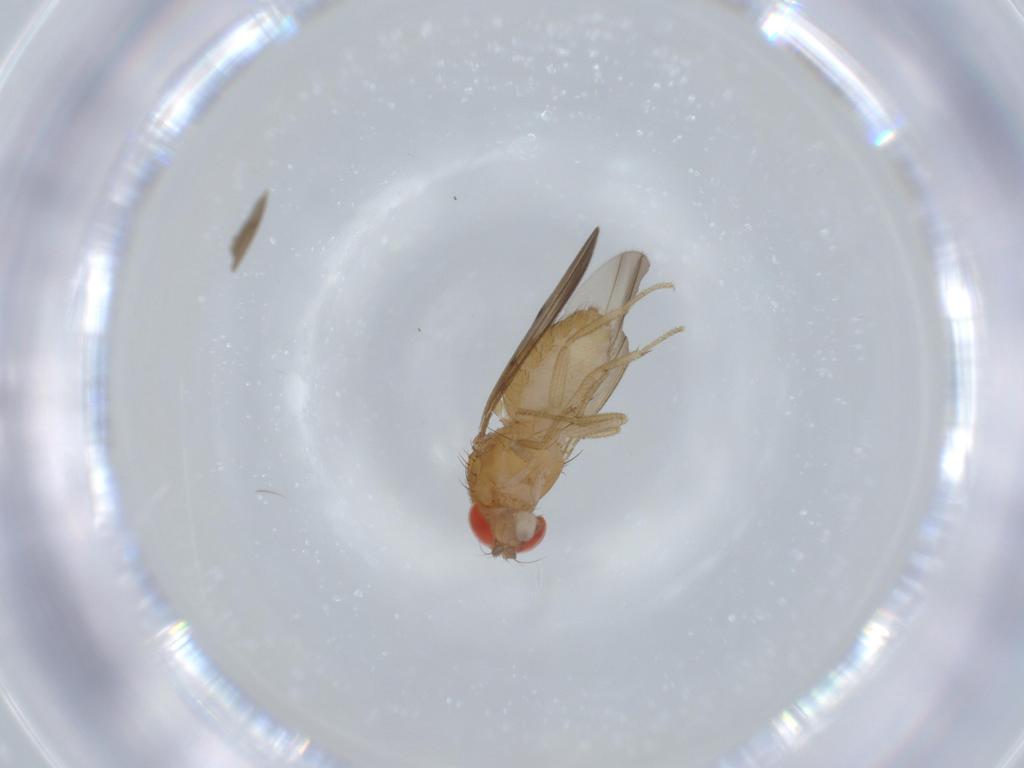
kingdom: Animalia
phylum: Arthropoda
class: Insecta
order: Diptera
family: Drosophilidae
